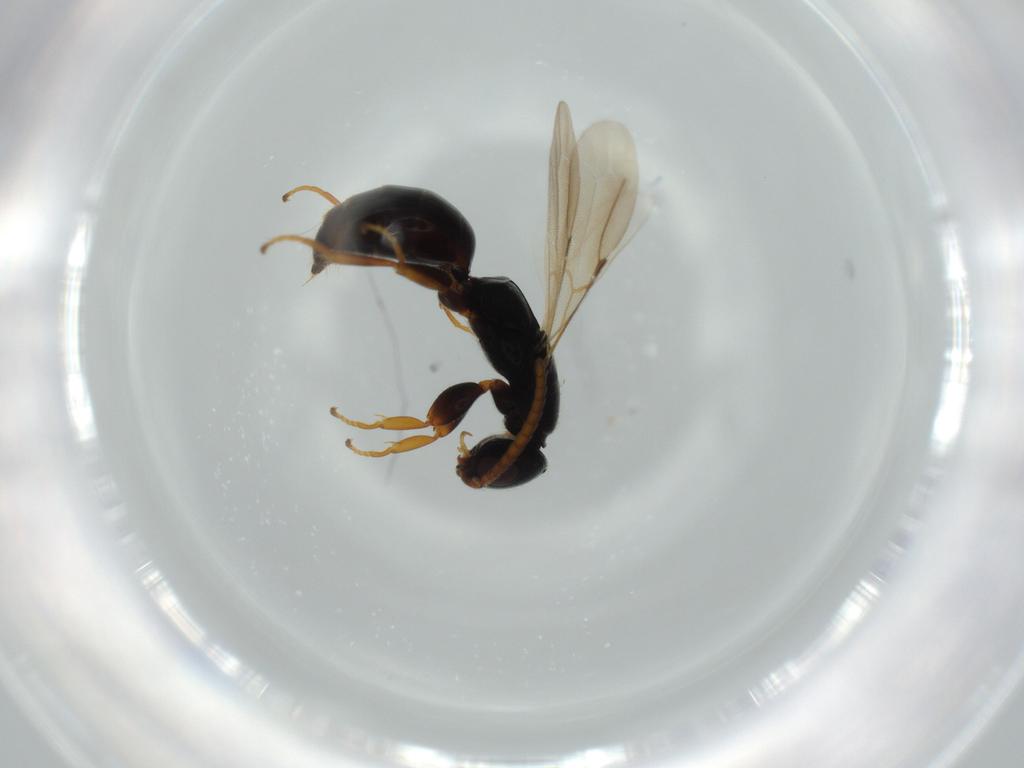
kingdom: Animalia
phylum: Arthropoda
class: Insecta
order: Hymenoptera
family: Bethylidae
